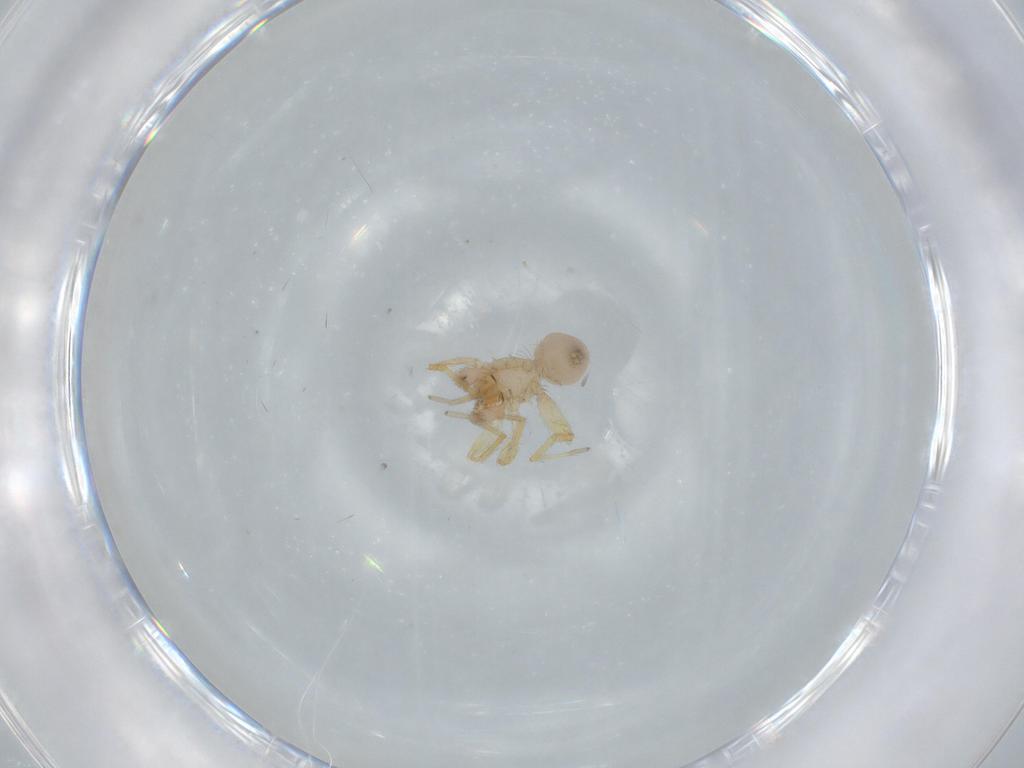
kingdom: Animalia
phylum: Arthropoda
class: Arachnida
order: Araneae
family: Oonopidae
